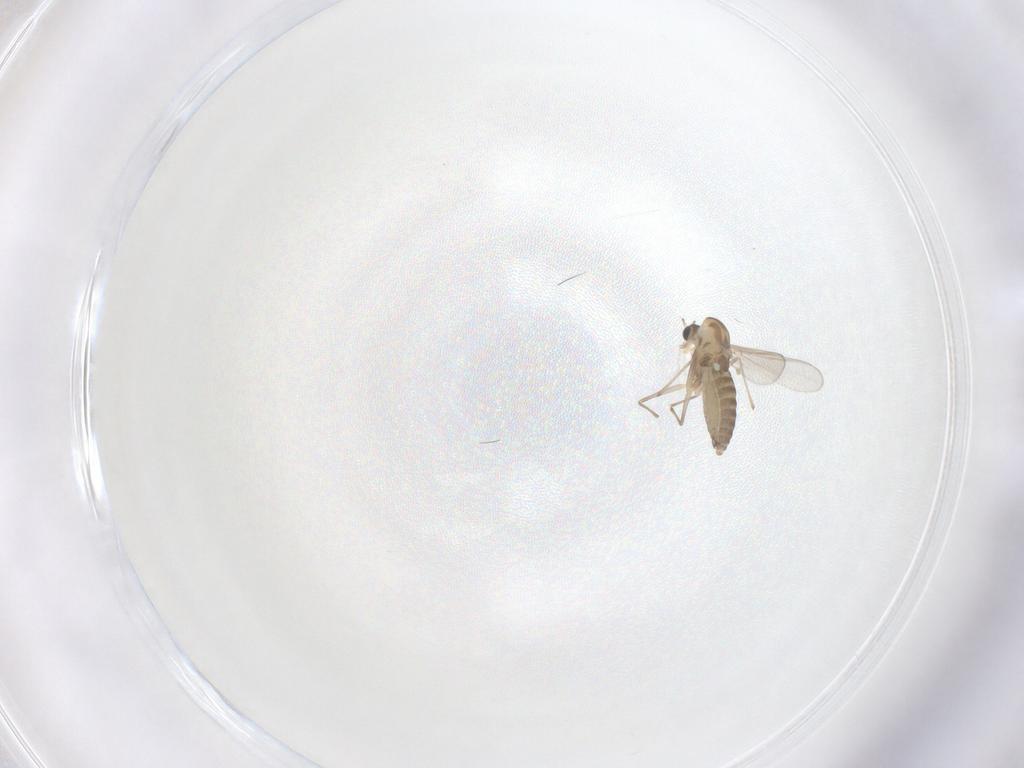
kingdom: Animalia
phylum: Arthropoda
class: Insecta
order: Diptera
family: Chironomidae
